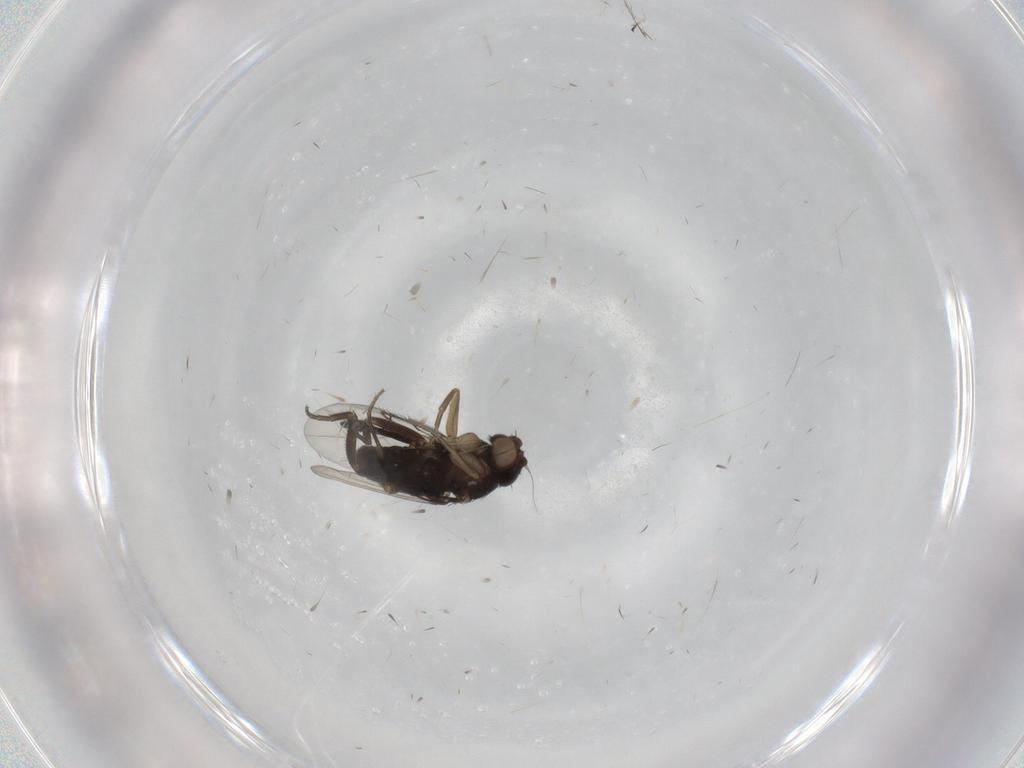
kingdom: Animalia
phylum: Arthropoda
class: Insecta
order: Diptera
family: Phoridae
